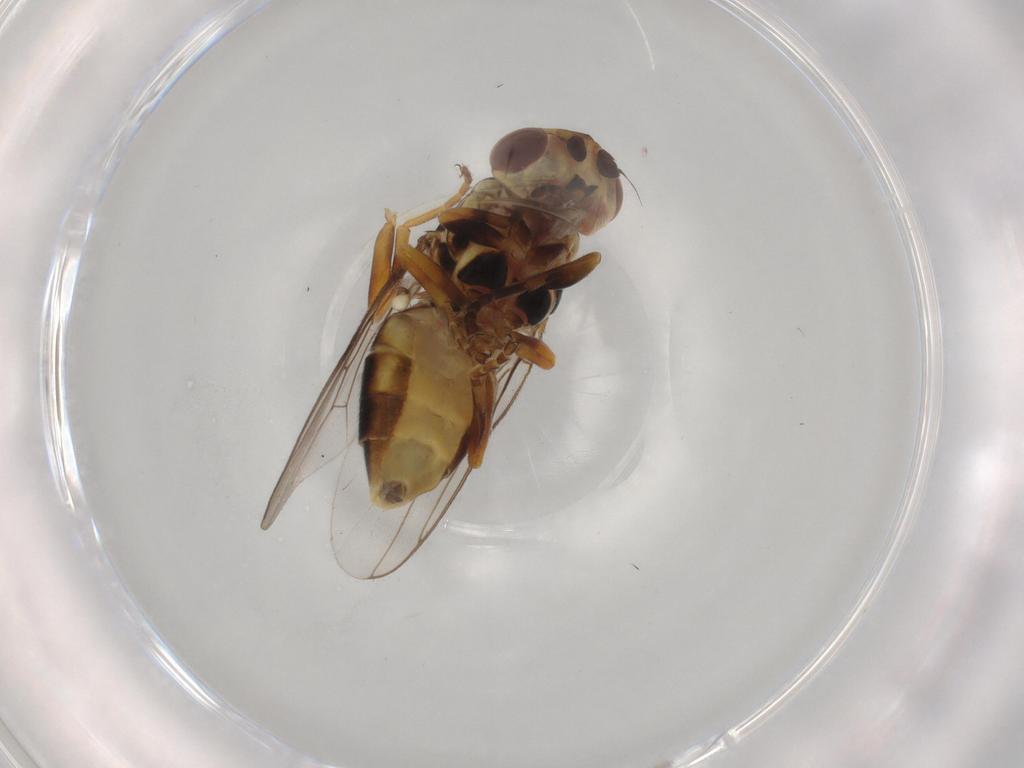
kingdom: Animalia
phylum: Arthropoda
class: Insecta
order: Diptera
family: Chloropidae
